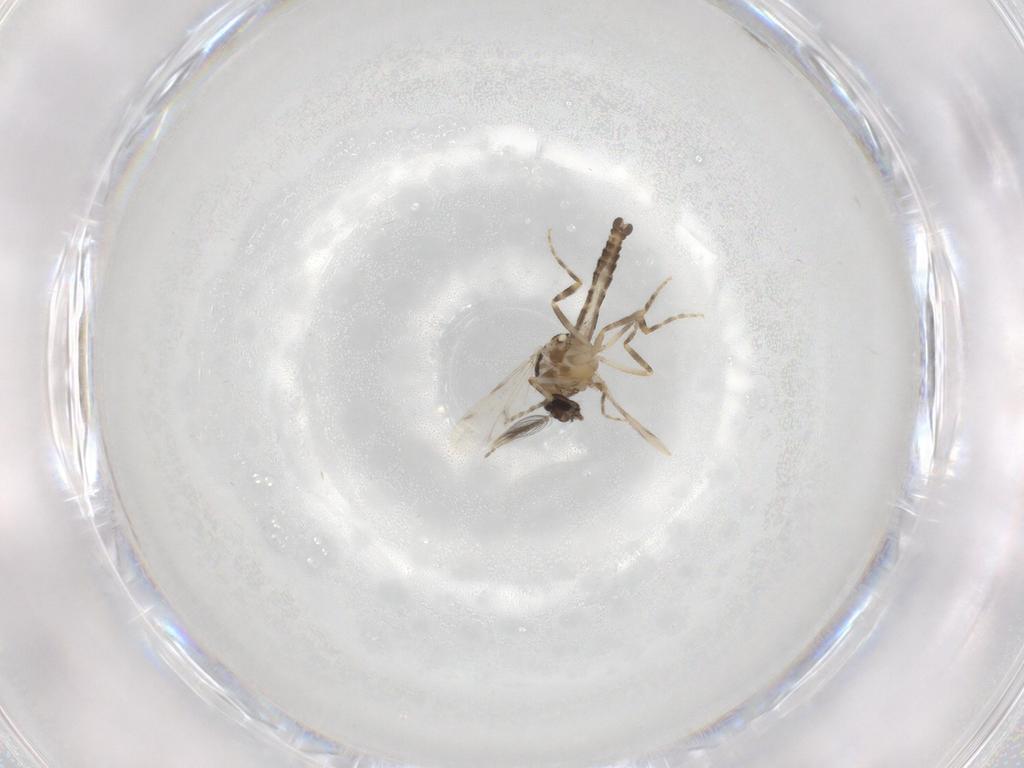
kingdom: Animalia
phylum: Arthropoda
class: Insecta
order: Diptera
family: Ceratopogonidae
